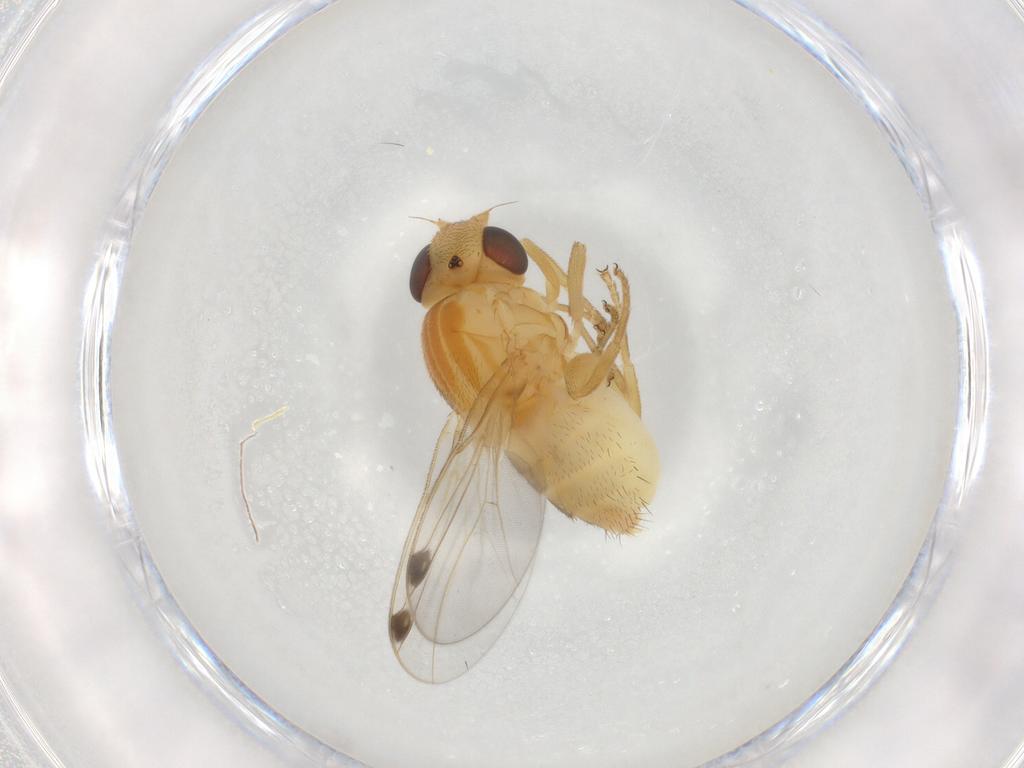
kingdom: Animalia
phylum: Arthropoda
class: Insecta
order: Diptera
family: Chloropidae
